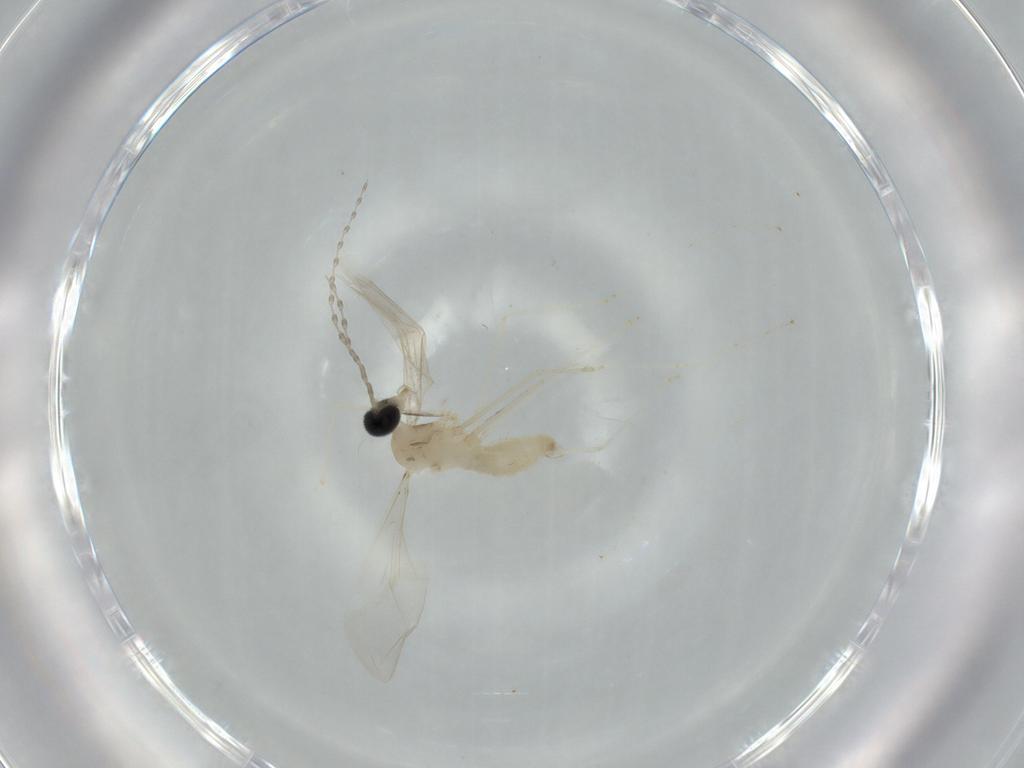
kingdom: Animalia
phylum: Arthropoda
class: Insecta
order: Diptera
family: Cecidomyiidae
